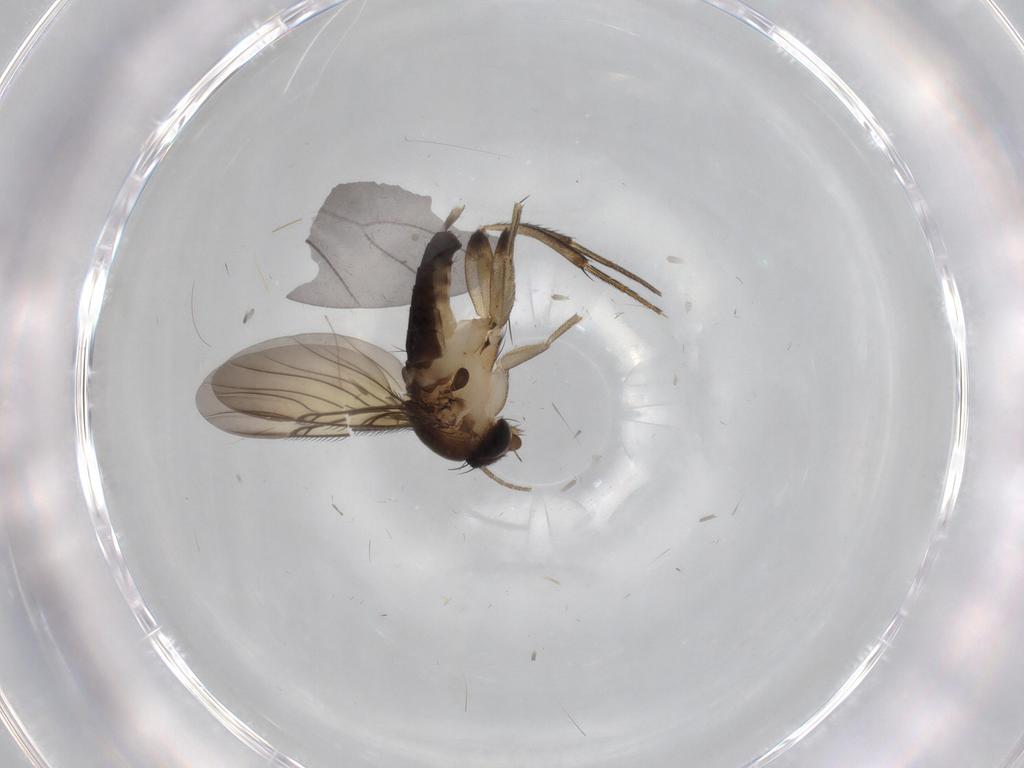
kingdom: Animalia
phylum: Arthropoda
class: Insecta
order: Diptera
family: Chironomidae
